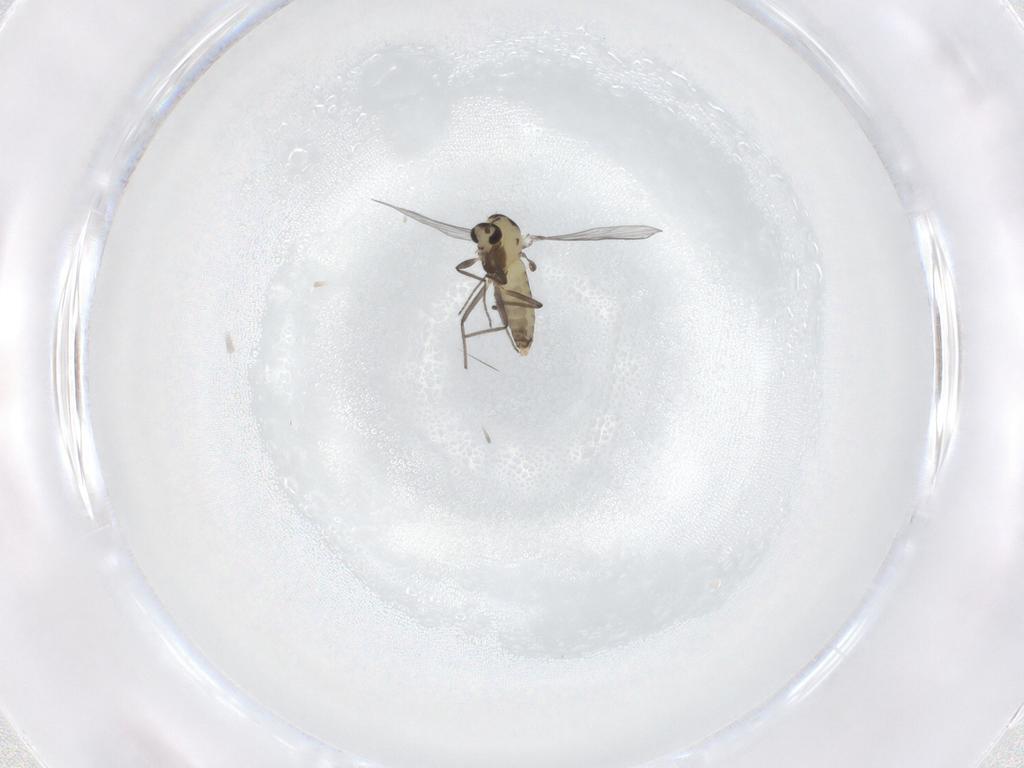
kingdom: Animalia
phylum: Arthropoda
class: Insecta
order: Diptera
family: Chironomidae
